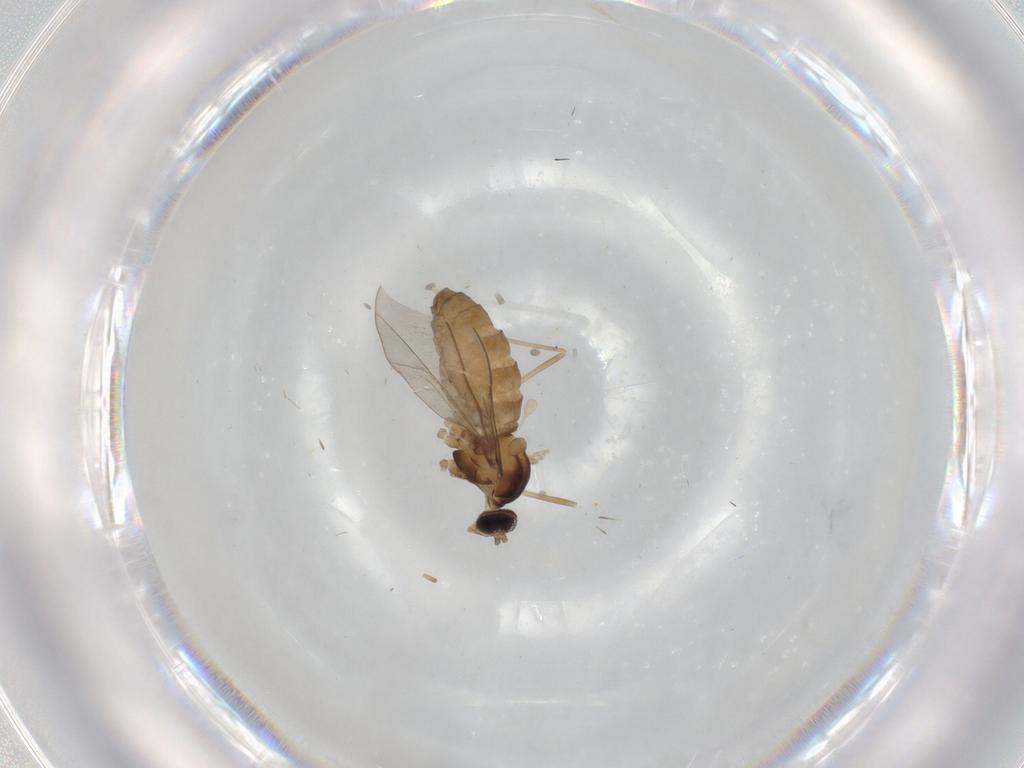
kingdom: Animalia
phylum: Arthropoda
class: Insecta
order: Diptera
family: Cecidomyiidae
